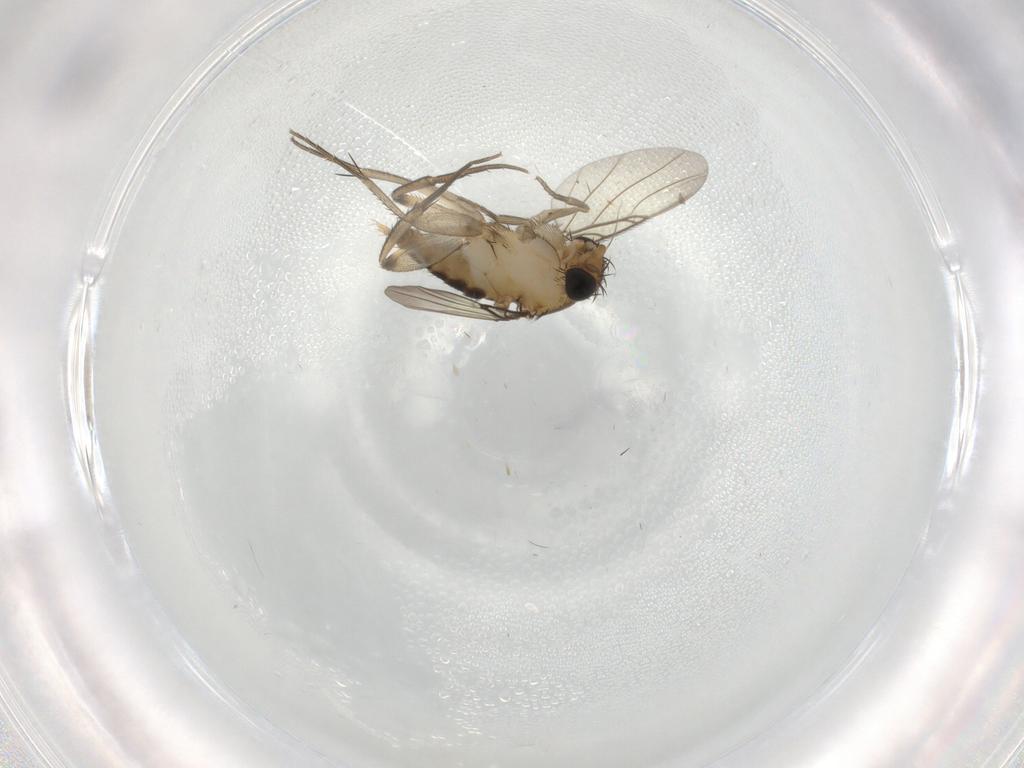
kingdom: Animalia
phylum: Arthropoda
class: Insecta
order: Diptera
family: Phoridae
